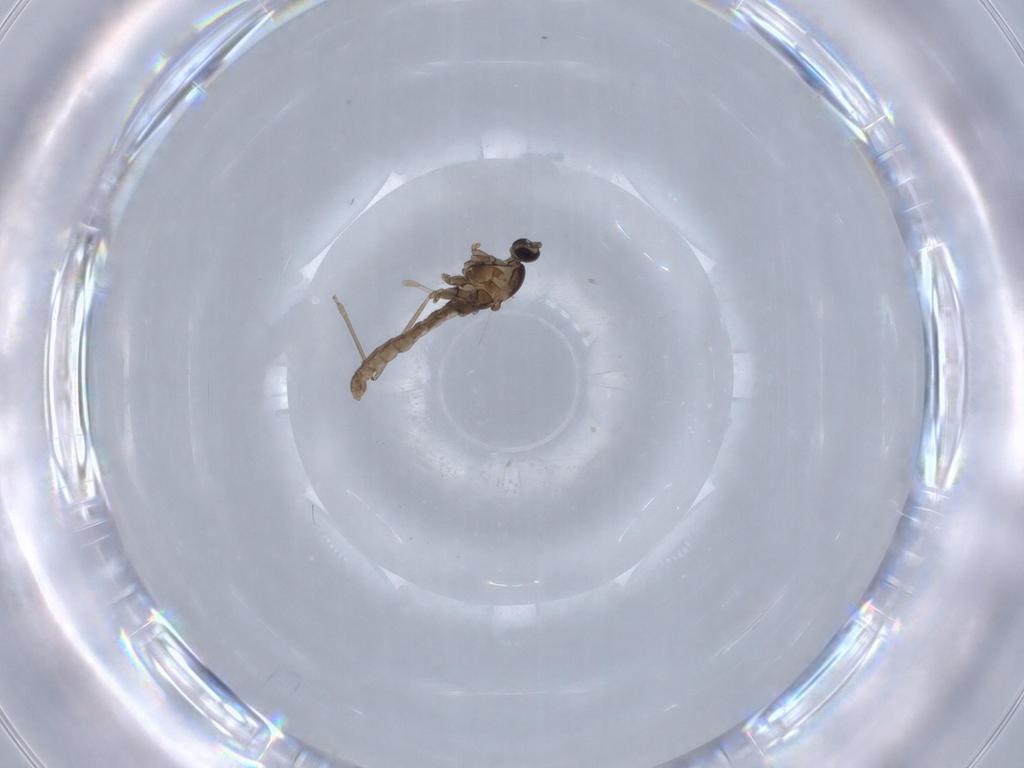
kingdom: Animalia
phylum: Arthropoda
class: Insecta
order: Diptera
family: Cecidomyiidae
